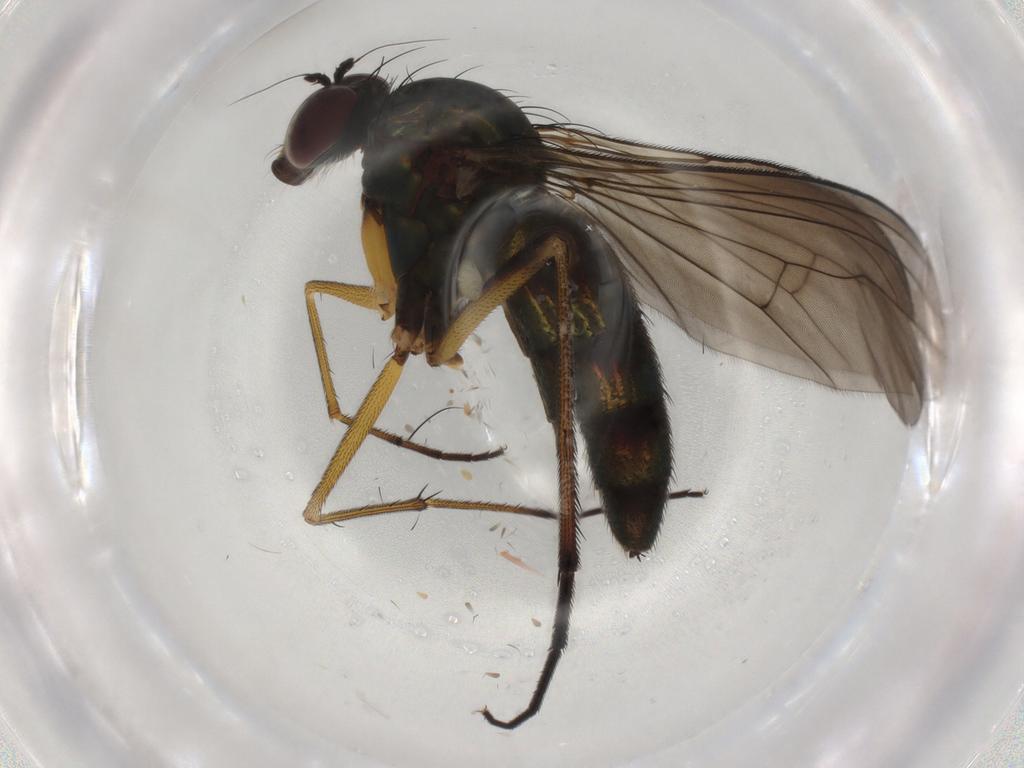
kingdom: Animalia
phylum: Arthropoda
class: Insecta
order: Diptera
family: Dolichopodidae
